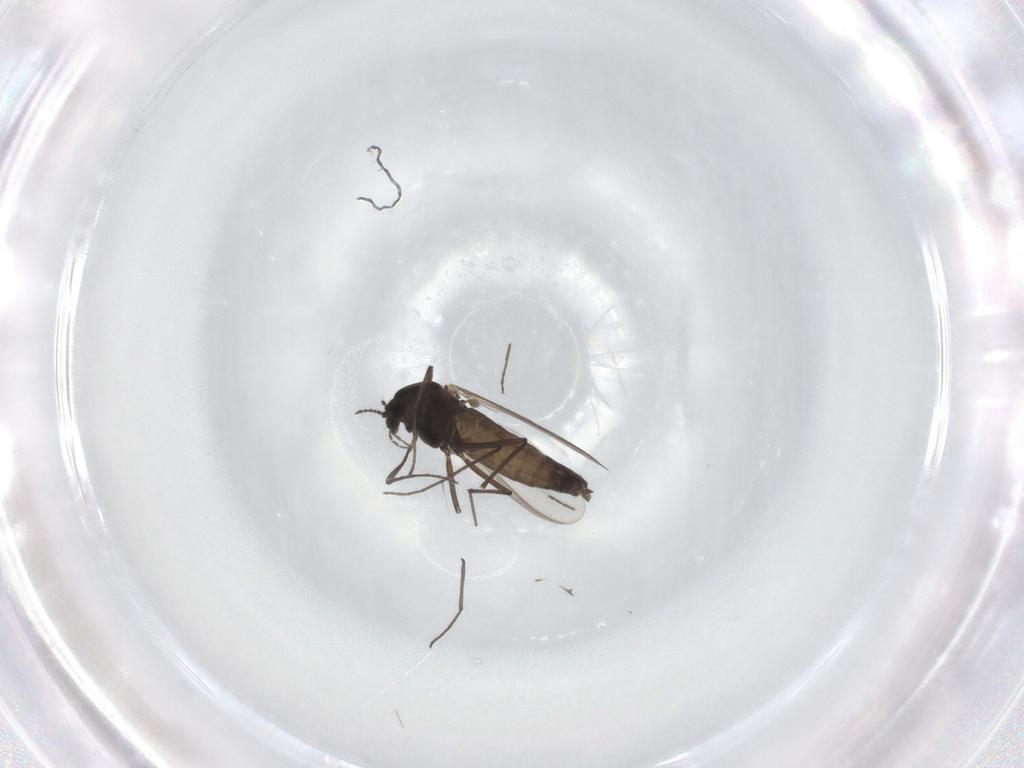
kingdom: Animalia
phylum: Arthropoda
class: Insecta
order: Diptera
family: Chironomidae
